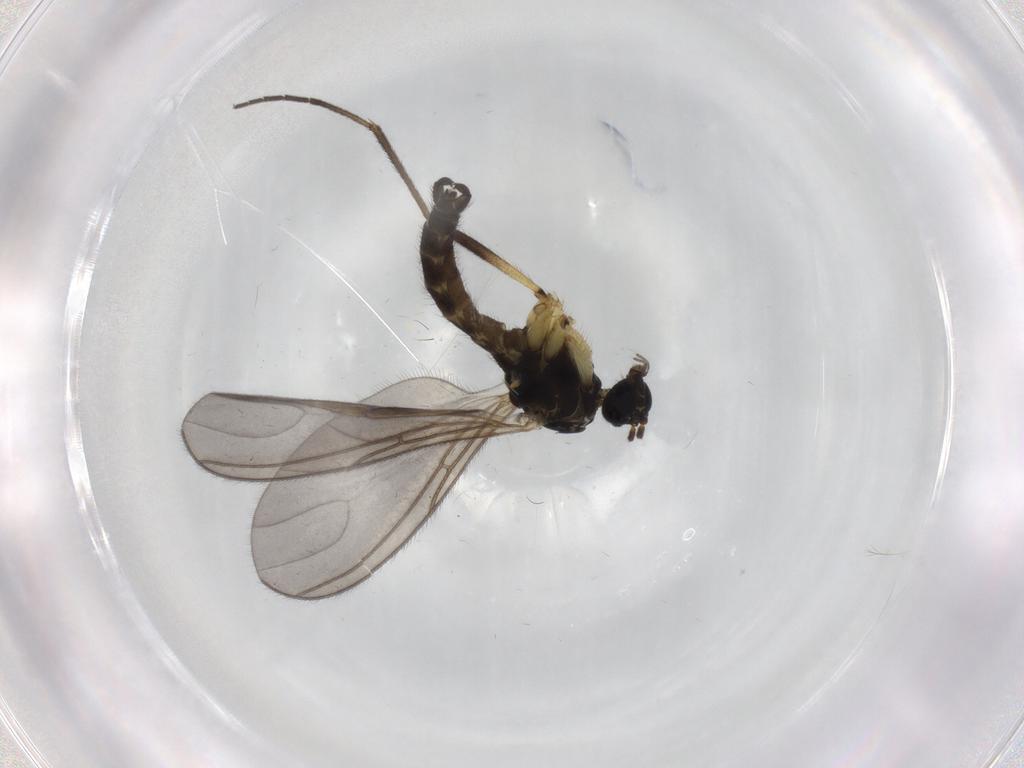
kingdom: Animalia
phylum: Arthropoda
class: Insecta
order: Diptera
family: Sciaridae
